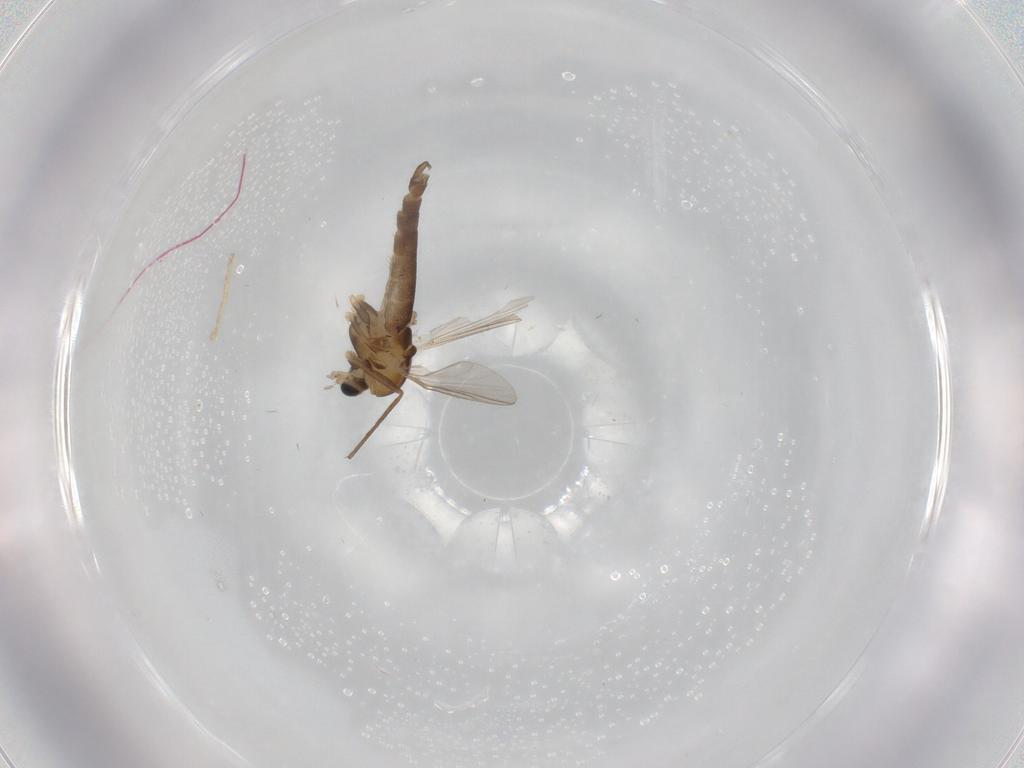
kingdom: Animalia
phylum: Arthropoda
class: Insecta
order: Diptera
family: Chironomidae
